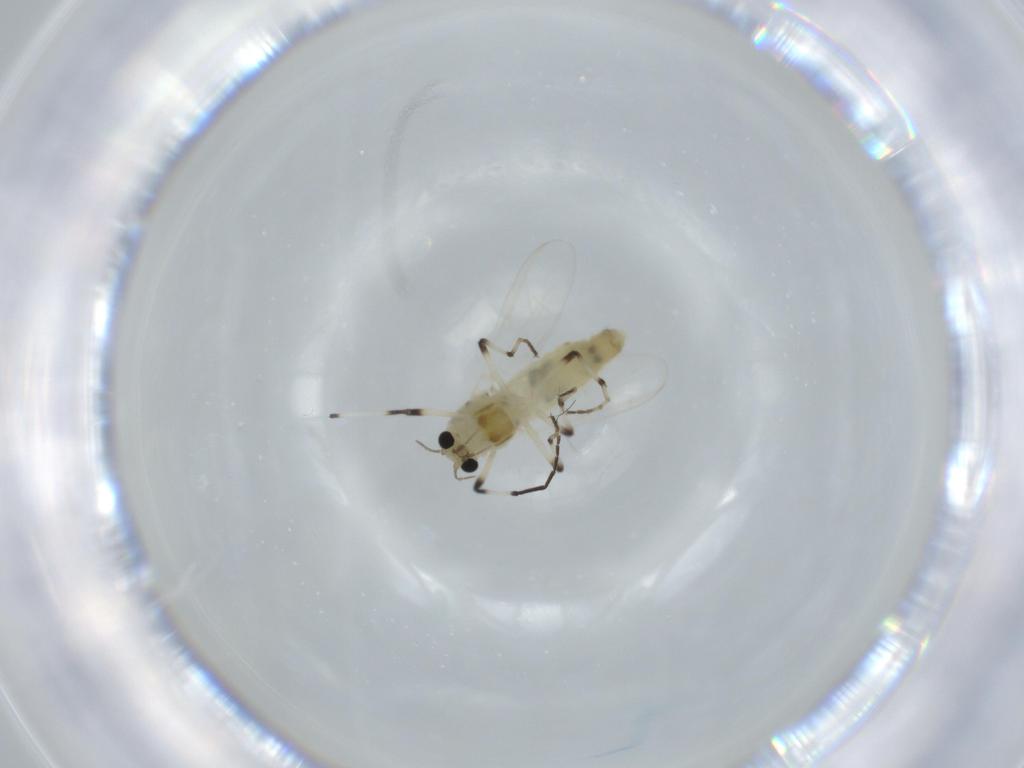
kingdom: Animalia
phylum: Arthropoda
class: Insecta
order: Diptera
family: Chironomidae
